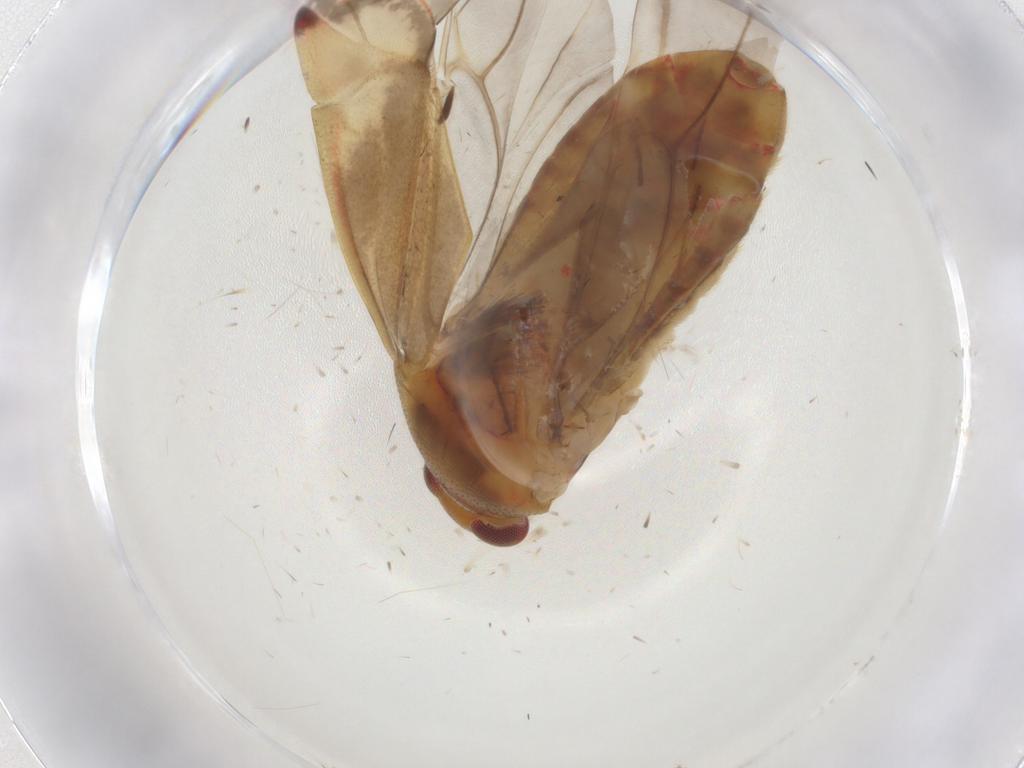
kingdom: Animalia
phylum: Arthropoda
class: Insecta
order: Hemiptera
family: Miridae
